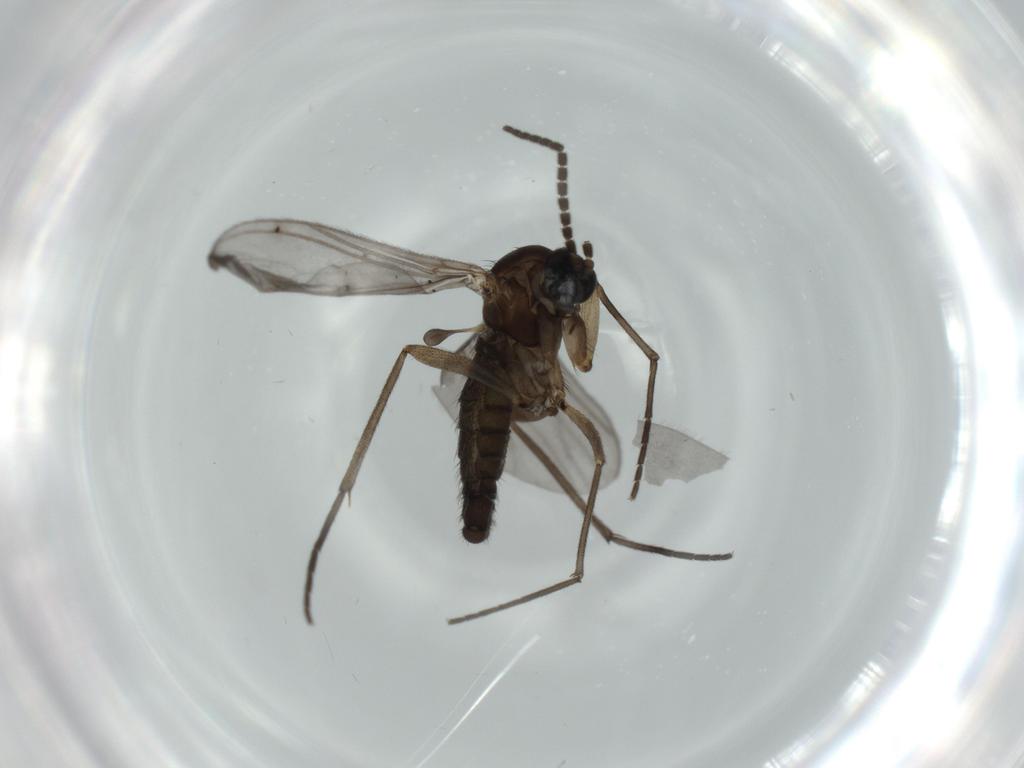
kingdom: Animalia
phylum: Arthropoda
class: Insecta
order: Diptera
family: Sciaridae
